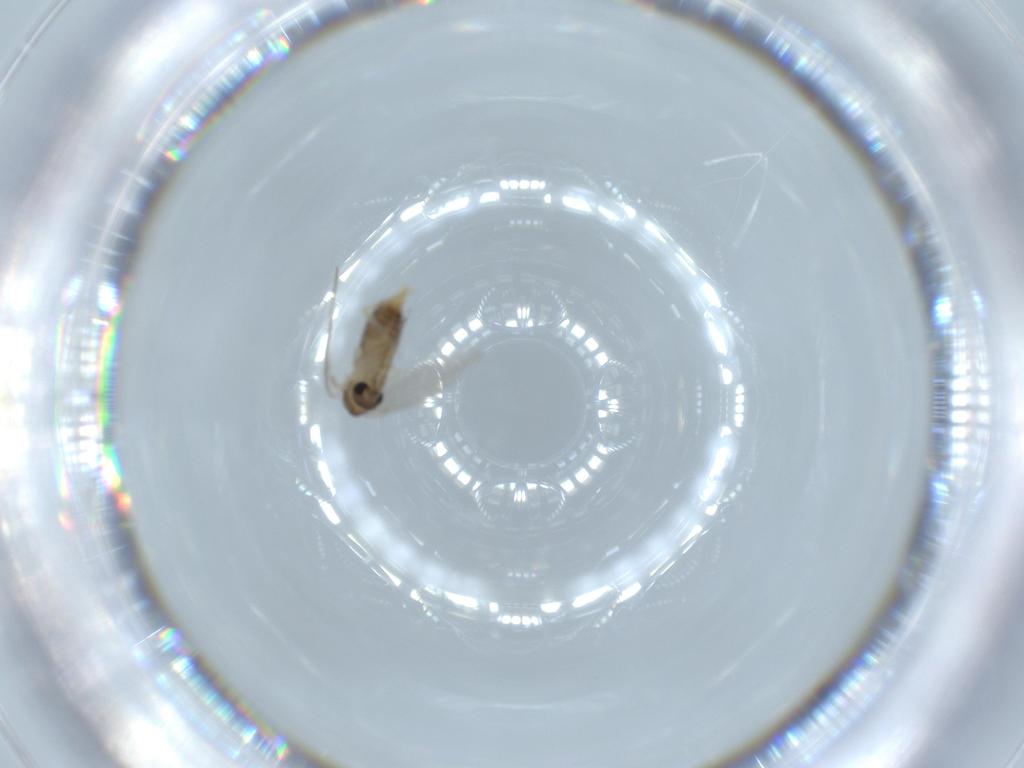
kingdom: Animalia
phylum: Arthropoda
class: Insecta
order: Diptera
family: Psychodidae
